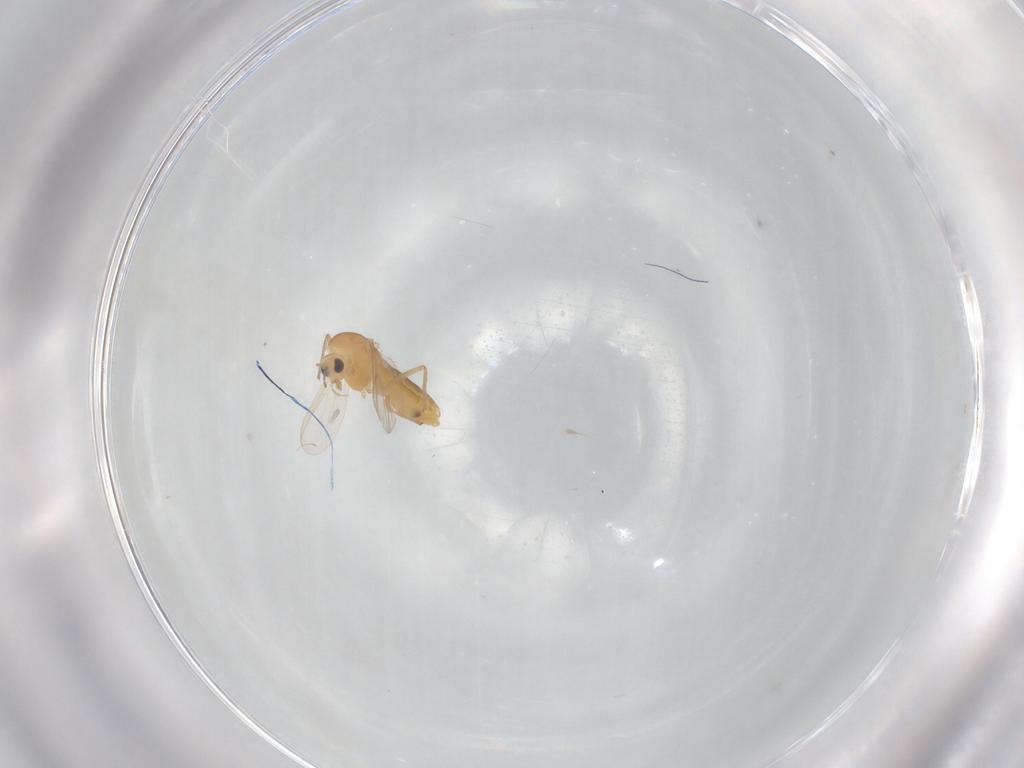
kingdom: Animalia
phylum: Arthropoda
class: Insecta
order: Diptera
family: Chironomidae
